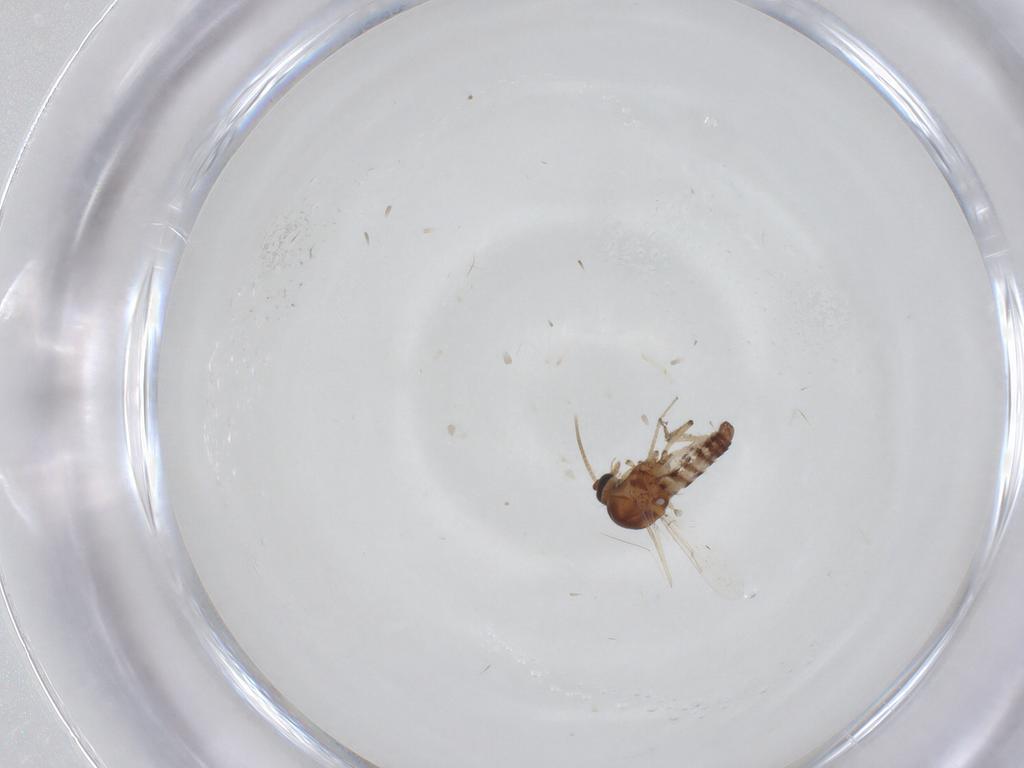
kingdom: Animalia
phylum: Arthropoda
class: Insecta
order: Diptera
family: Ceratopogonidae
